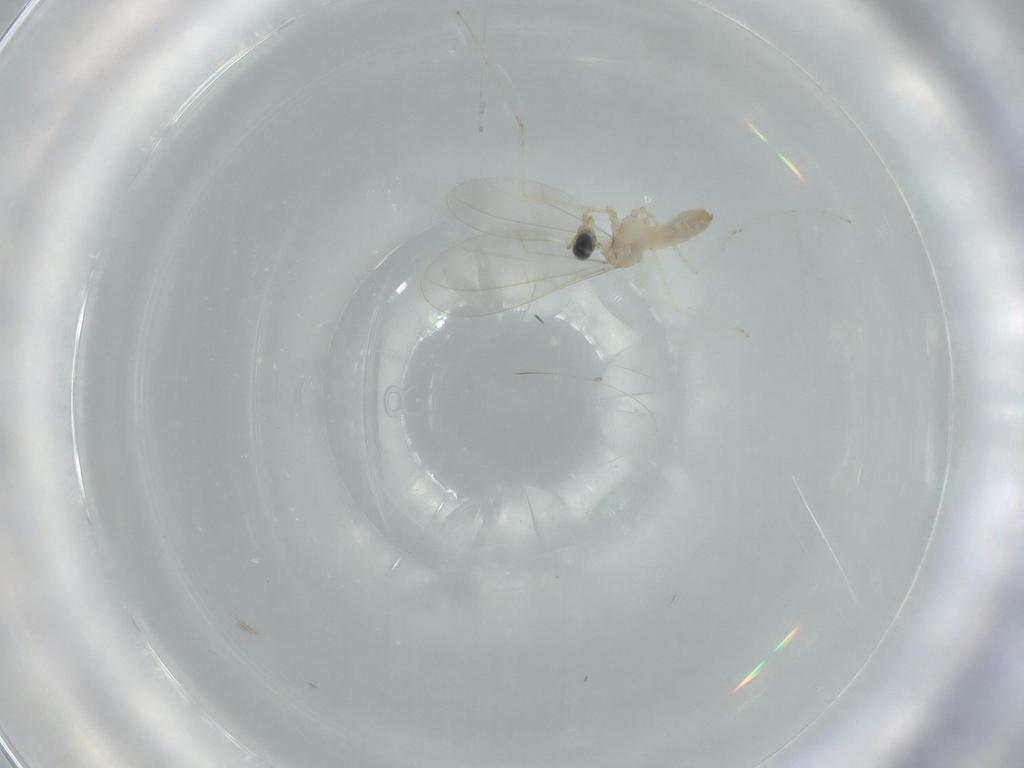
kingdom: Animalia
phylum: Arthropoda
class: Insecta
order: Diptera
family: Cecidomyiidae
